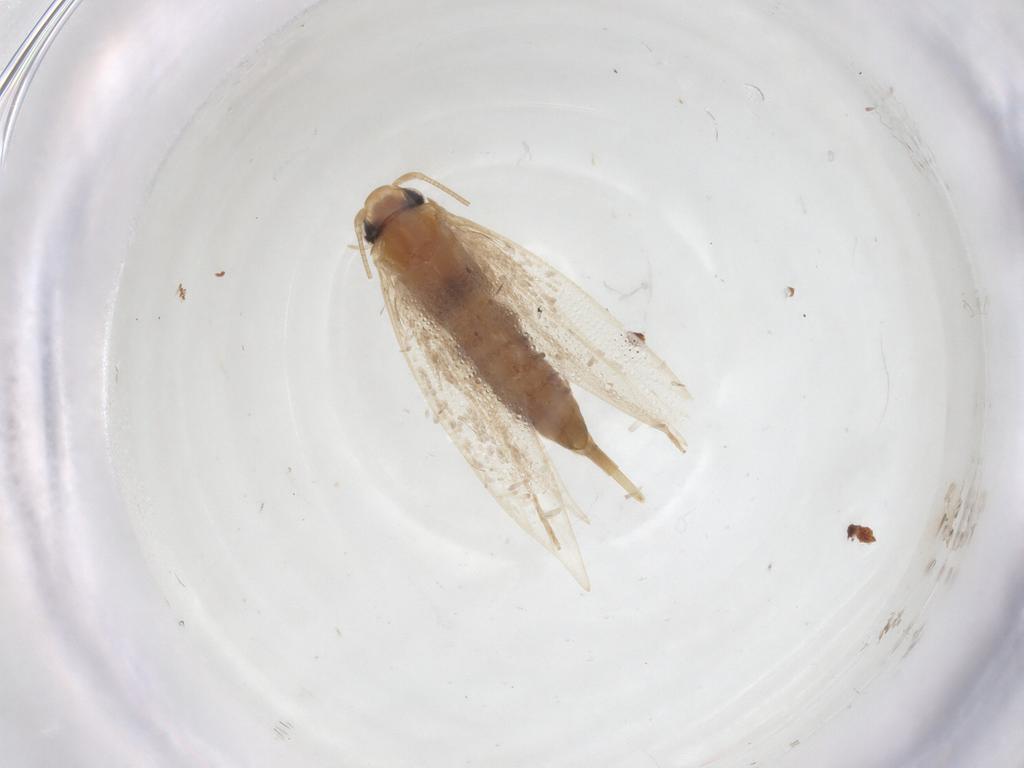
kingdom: Animalia
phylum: Arthropoda
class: Insecta
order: Lepidoptera
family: Tineidae
